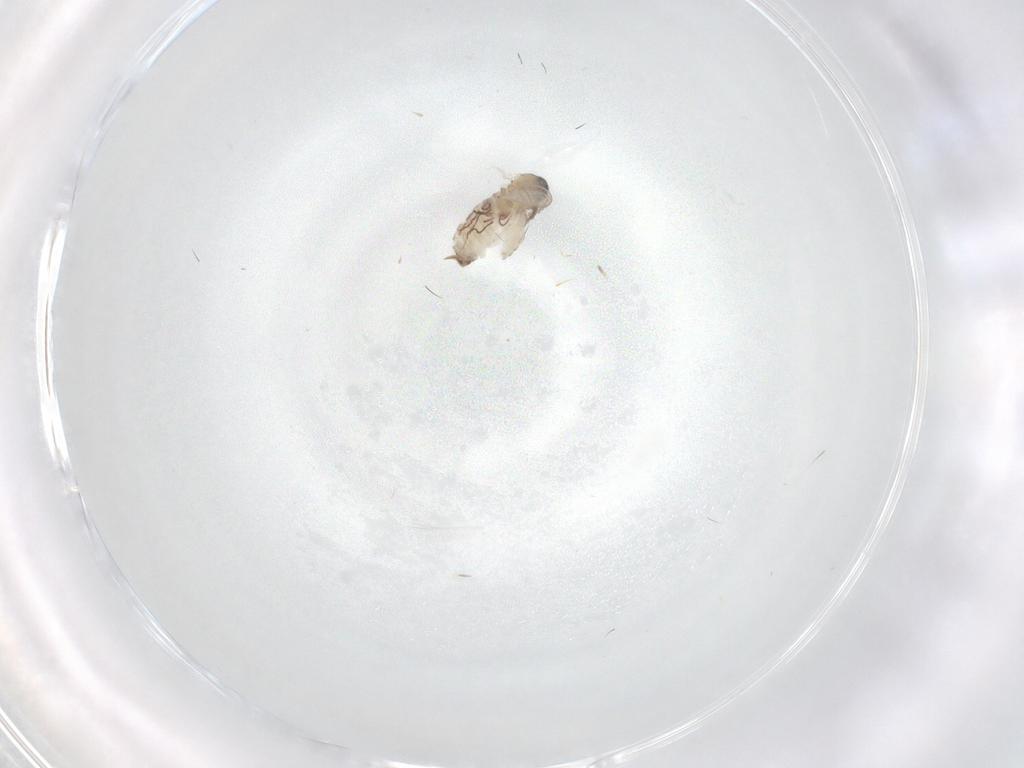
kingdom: Animalia
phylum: Arthropoda
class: Insecta
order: Diptera
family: Psychodidae
